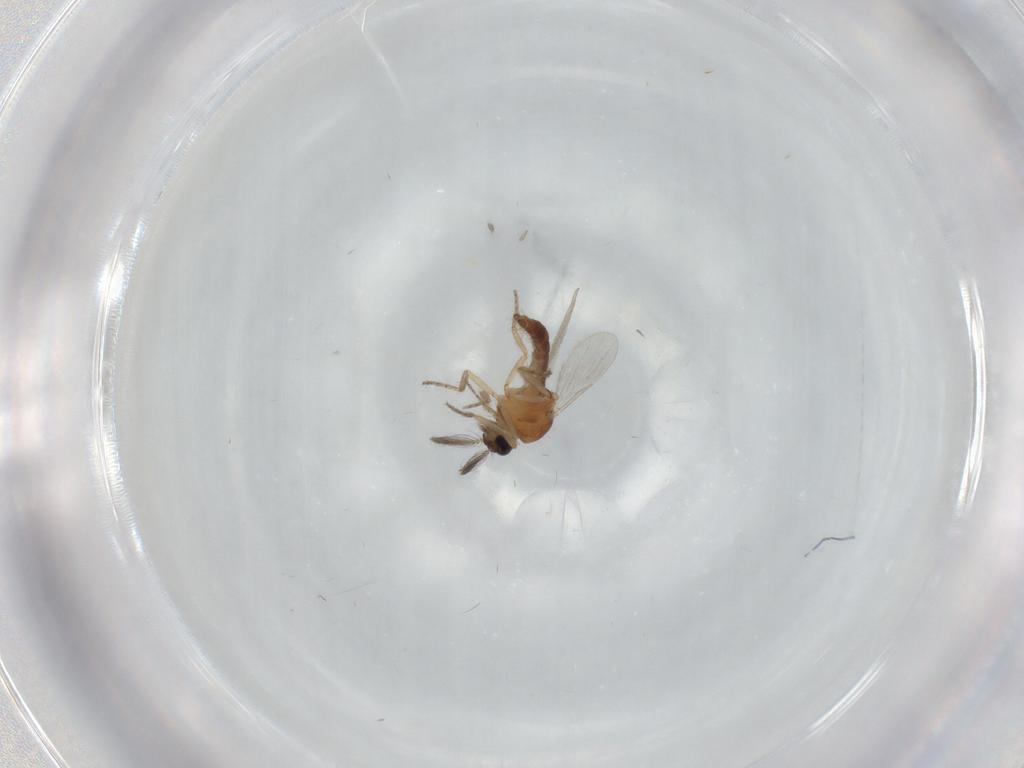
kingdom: Animalia
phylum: Arthropoda
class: Insecta
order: Diptera
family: Ceratopogonidae
